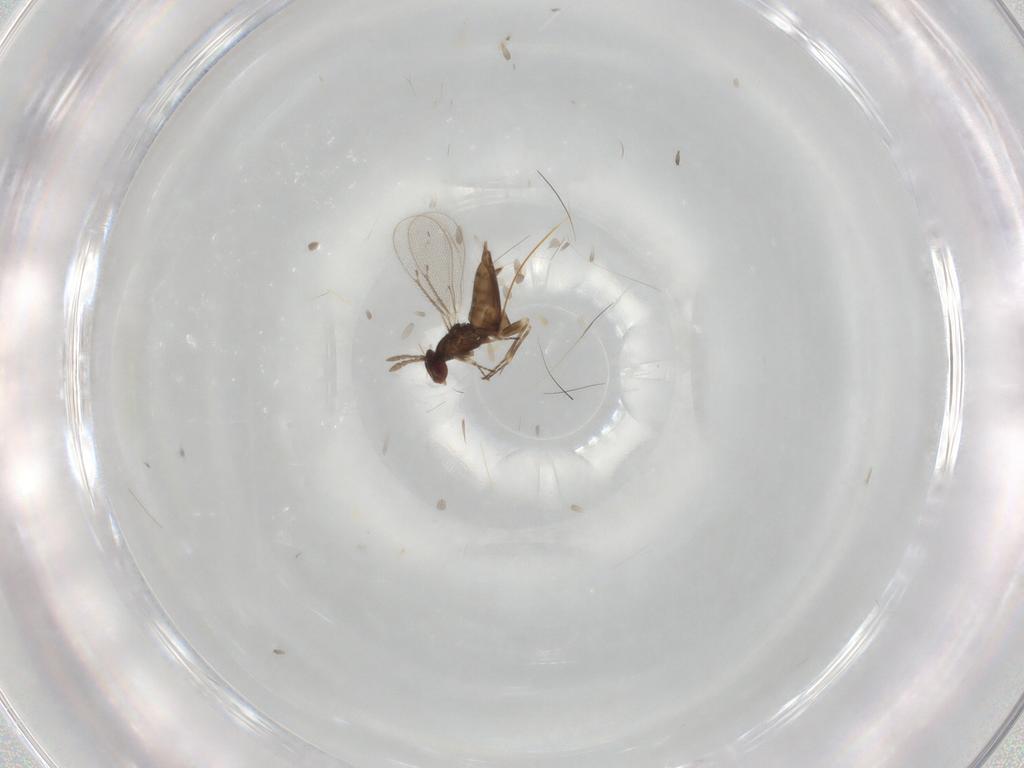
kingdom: Animalia
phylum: Arthropoda
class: Insecta
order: Hymenoptera
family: Eulophidae
